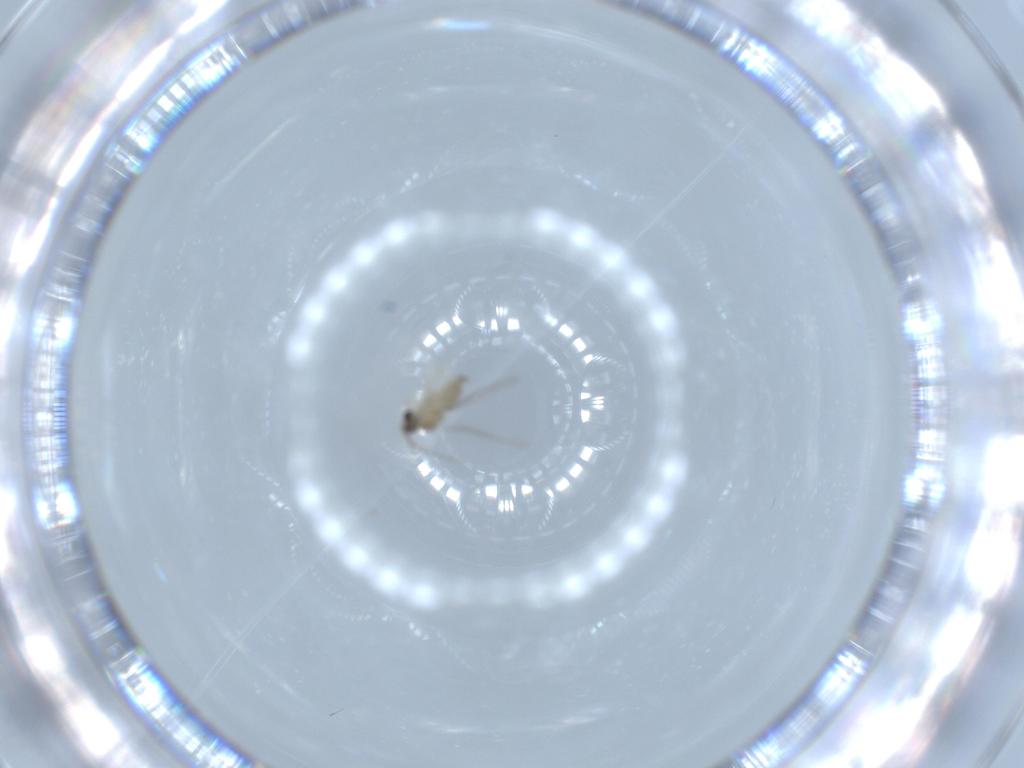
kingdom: Animalia
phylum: Arthropoda
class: Insecta
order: Diptera
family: Cecidomyiidae
